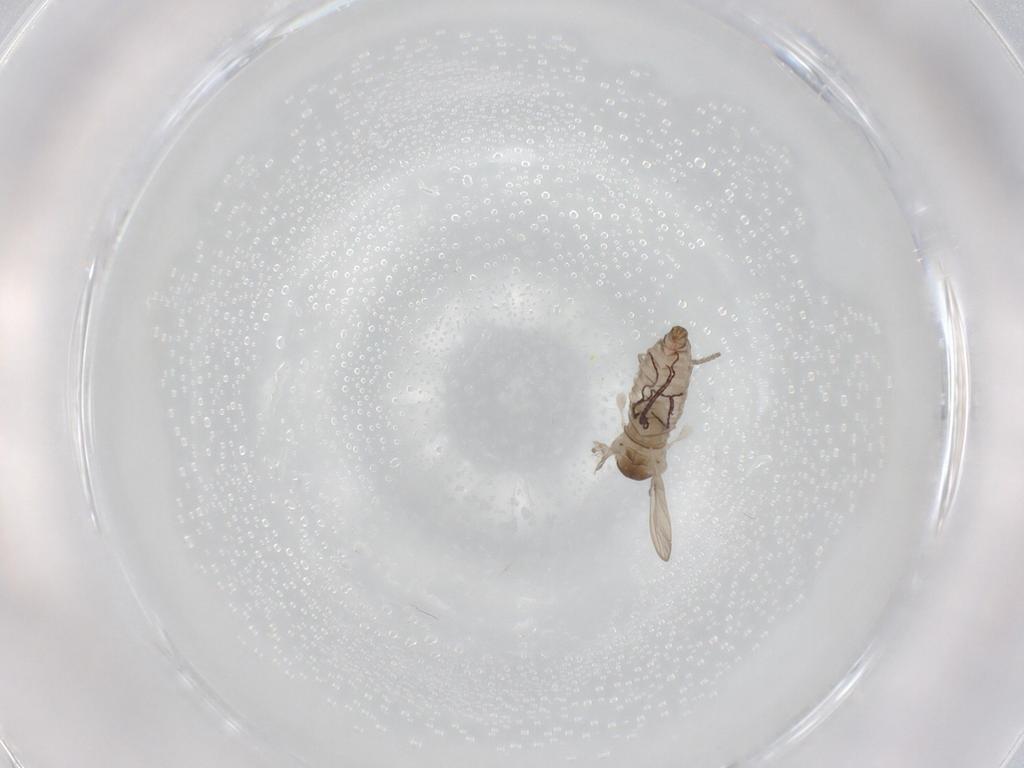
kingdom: Animalia
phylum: Arthropoda
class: Insecta
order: Diptera
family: Psychodidae
